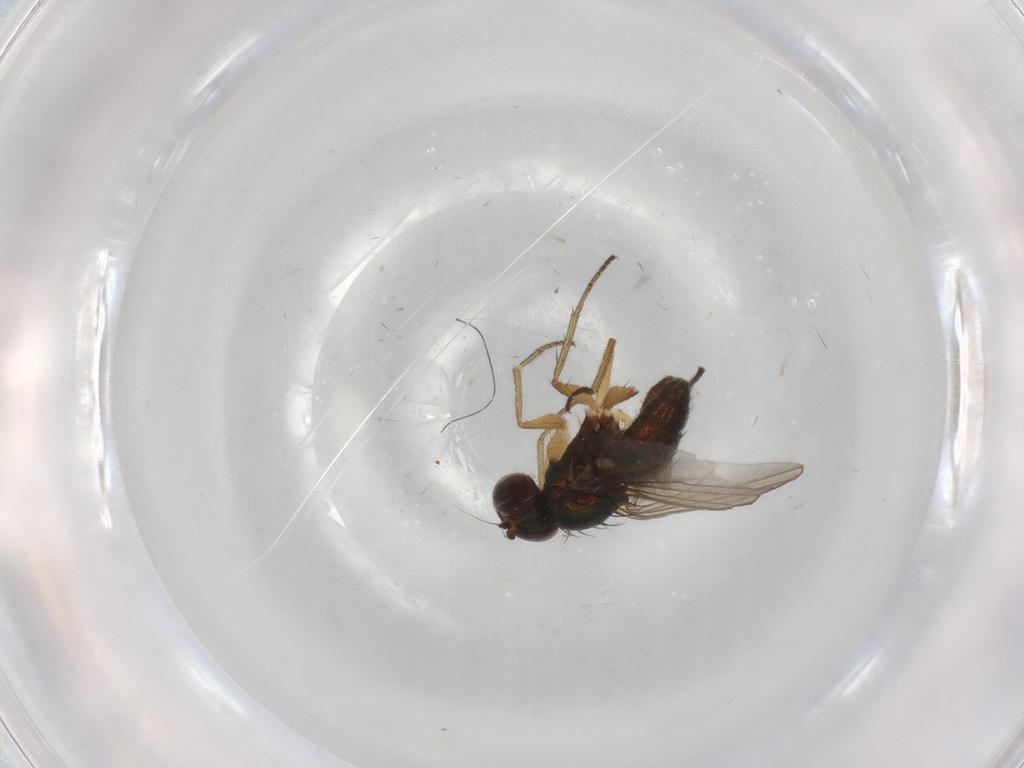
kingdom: Animalia
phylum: Arthropoda
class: Insecta
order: Diptera
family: Dolichopodidae
